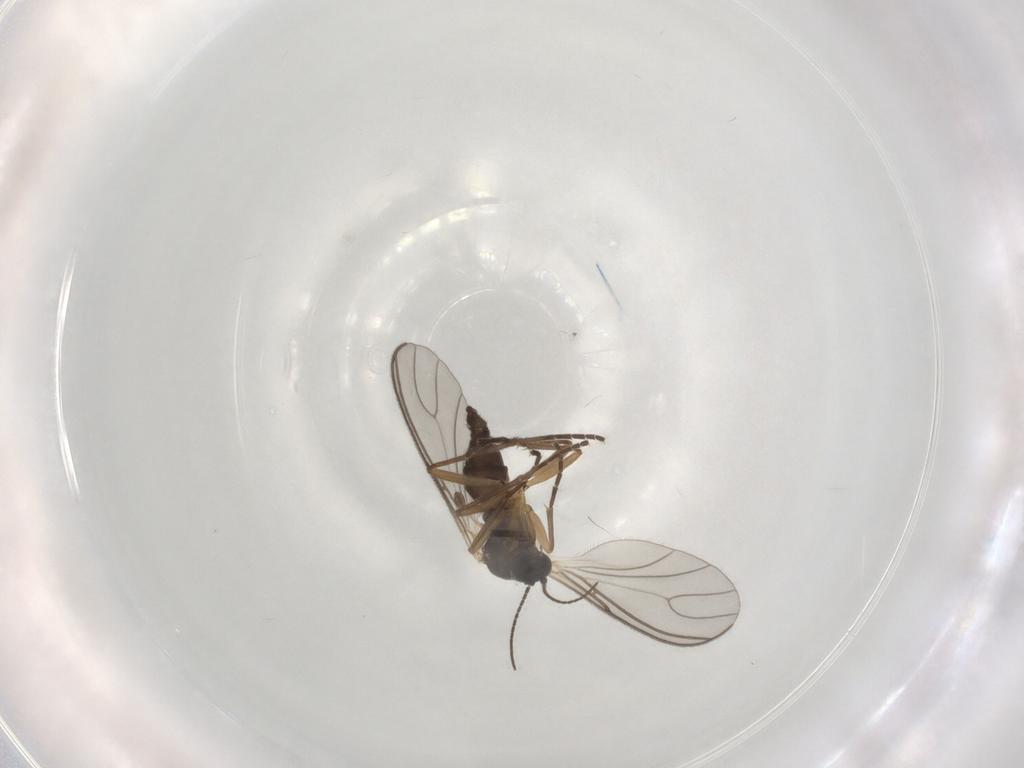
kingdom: Animalia
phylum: Arthropoda
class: Insecta
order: Diptera
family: Sciaridae
